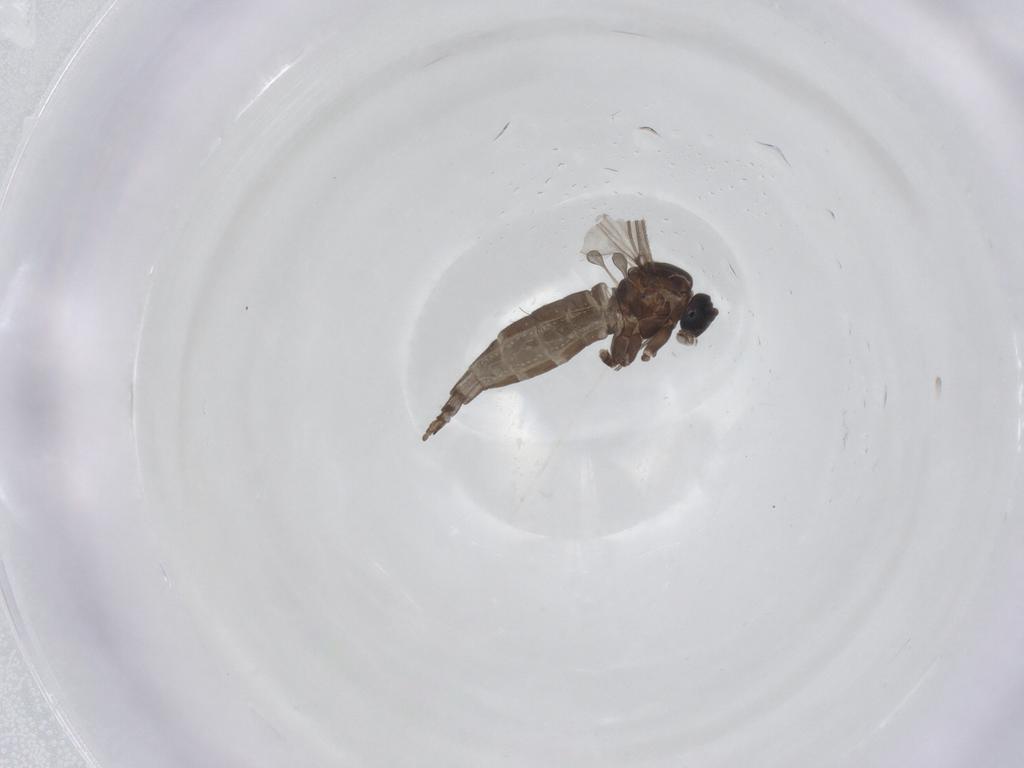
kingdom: Animalia
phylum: Arthropoda
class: Insecta
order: Diptera
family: Sciaridae
